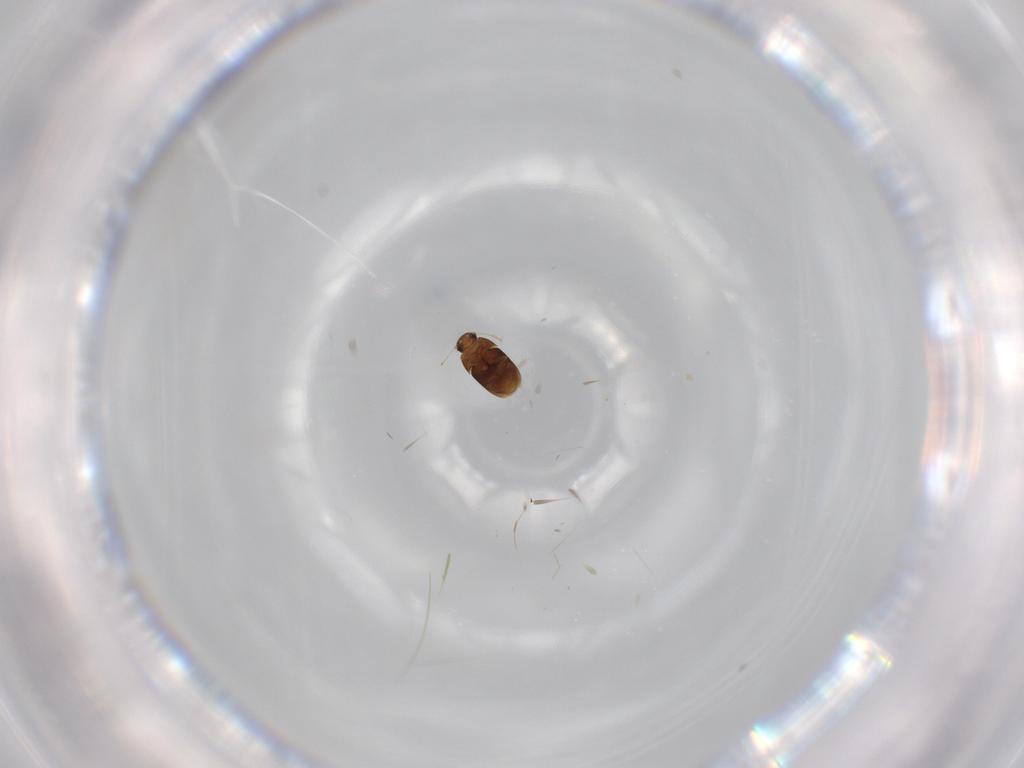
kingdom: Animalia
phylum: Arthropoda
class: Insecta
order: Coleoptera
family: Ptiliidae
